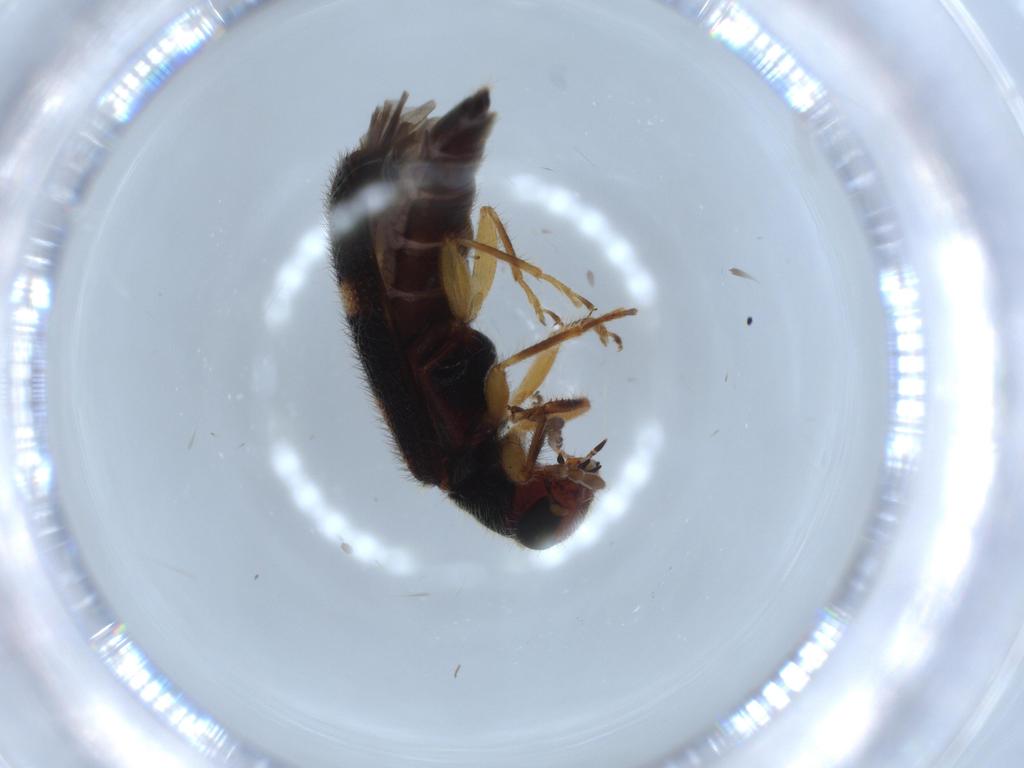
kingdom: Animalia
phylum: Arthropoda
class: Insecta
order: Coleoptera
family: Cleridae
